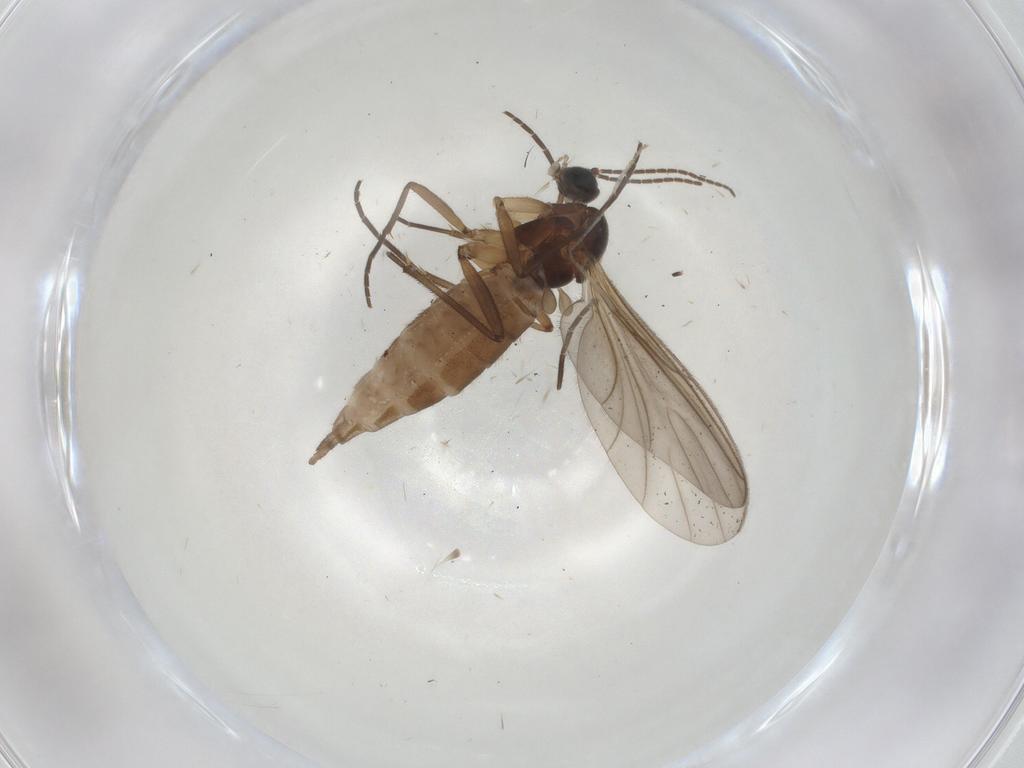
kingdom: Animalia
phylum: Arthropoda
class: Insecta
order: Diptera
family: Sciaridae
